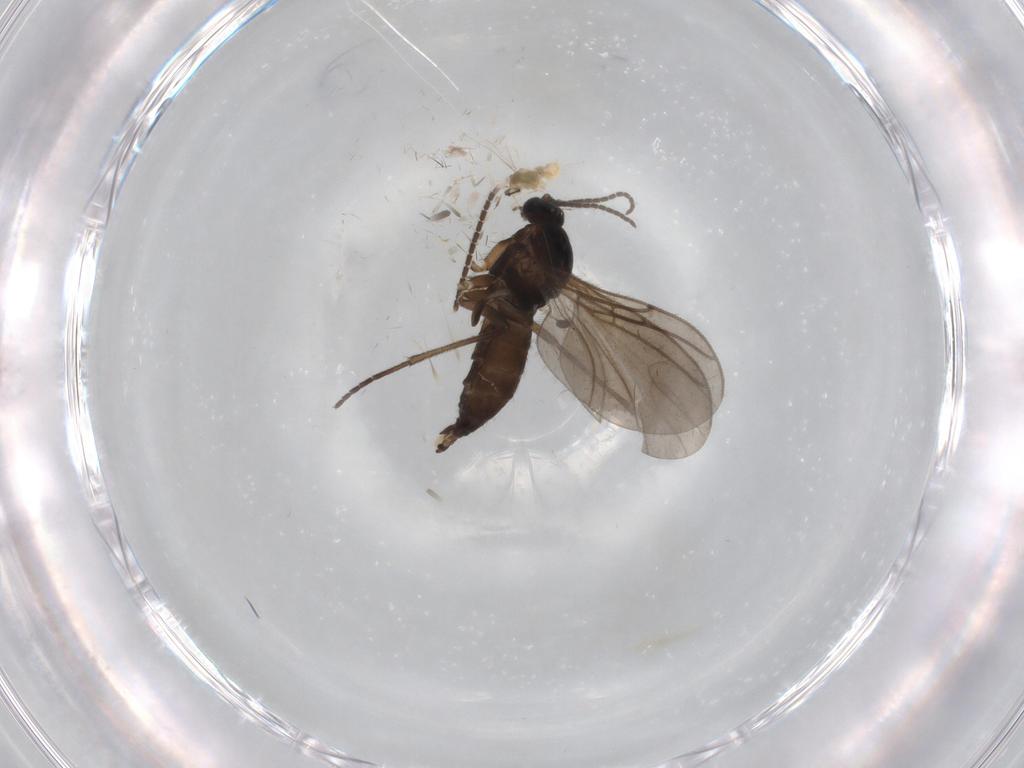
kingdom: Animalia
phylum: Arthropoda
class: Insecta
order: Diptera
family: Sciaridae
